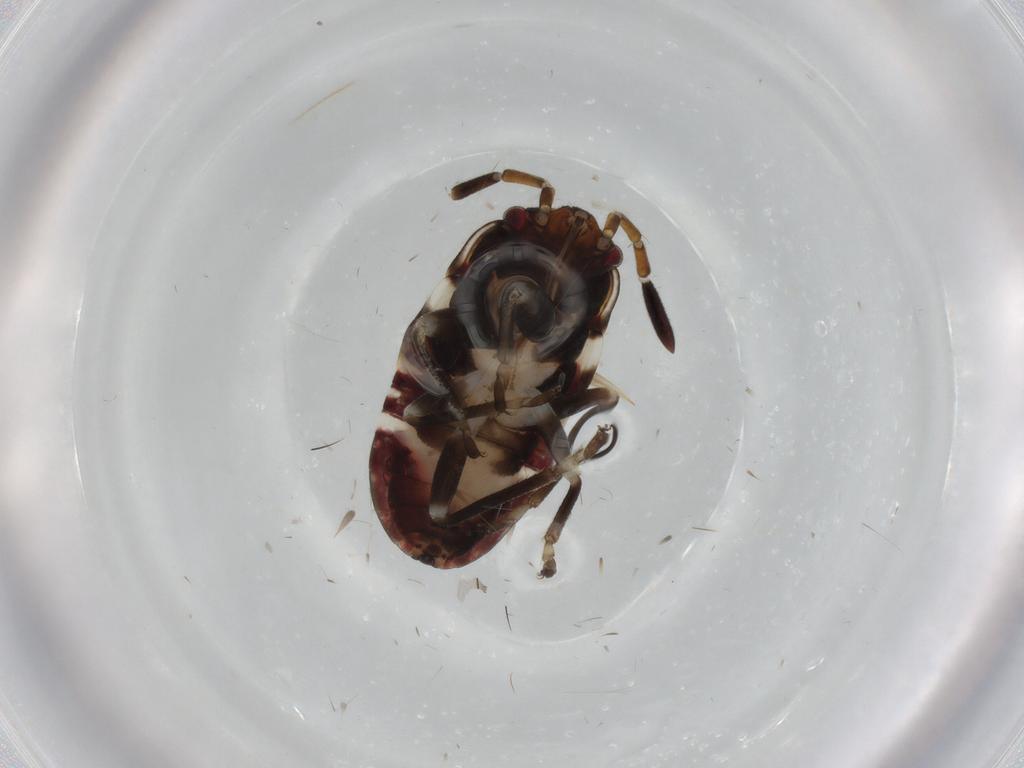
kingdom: Animalia
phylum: Arthropoda
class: Insecta
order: Hemiptera
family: Rhyparochromidae
